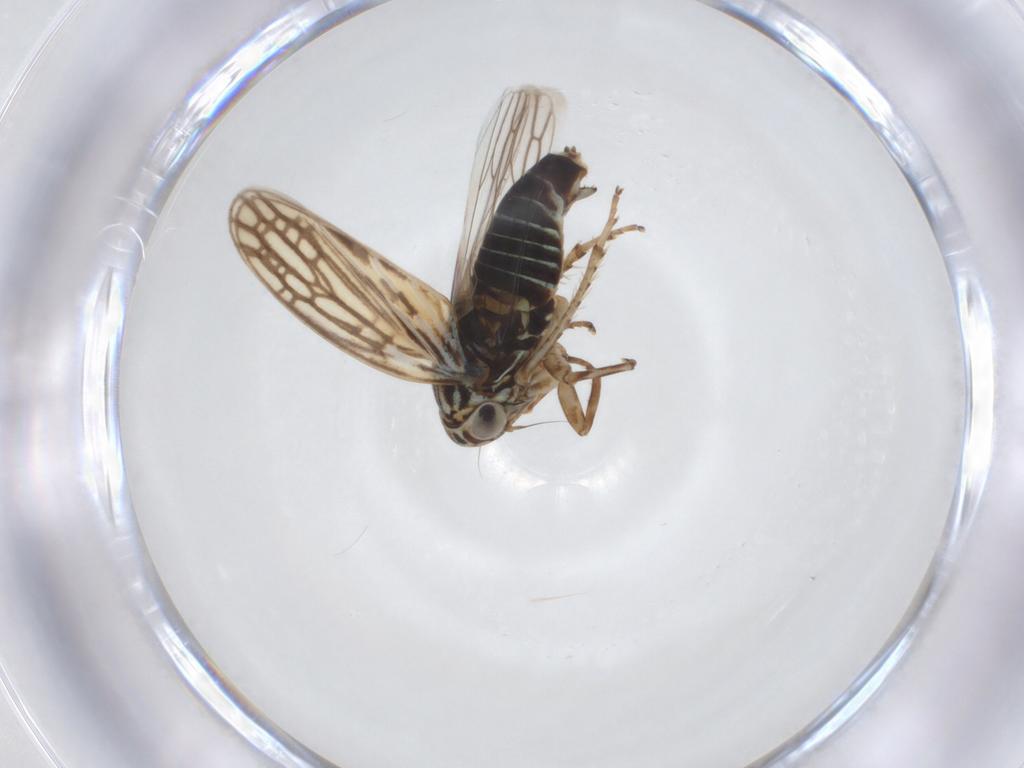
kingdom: Animalia
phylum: Arthropoda
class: Insecta
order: Hemiptera
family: Cicadellidae
